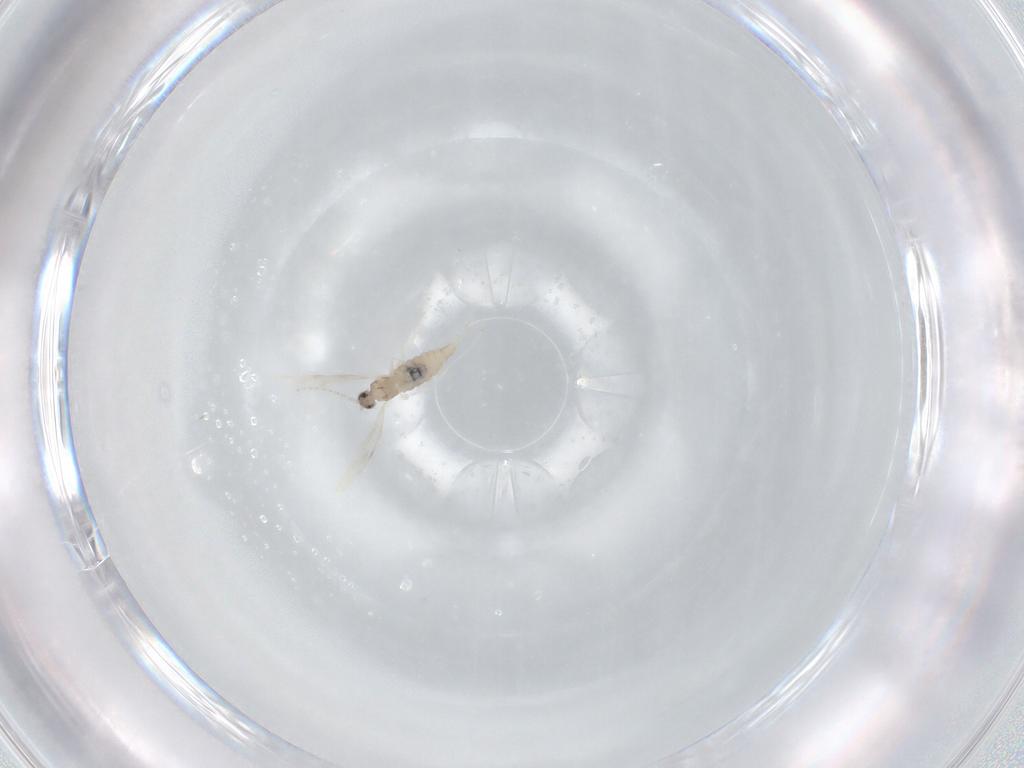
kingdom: Animalia
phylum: Arthropoda
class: Insecta
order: Diptera
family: Cecidomyiidae
